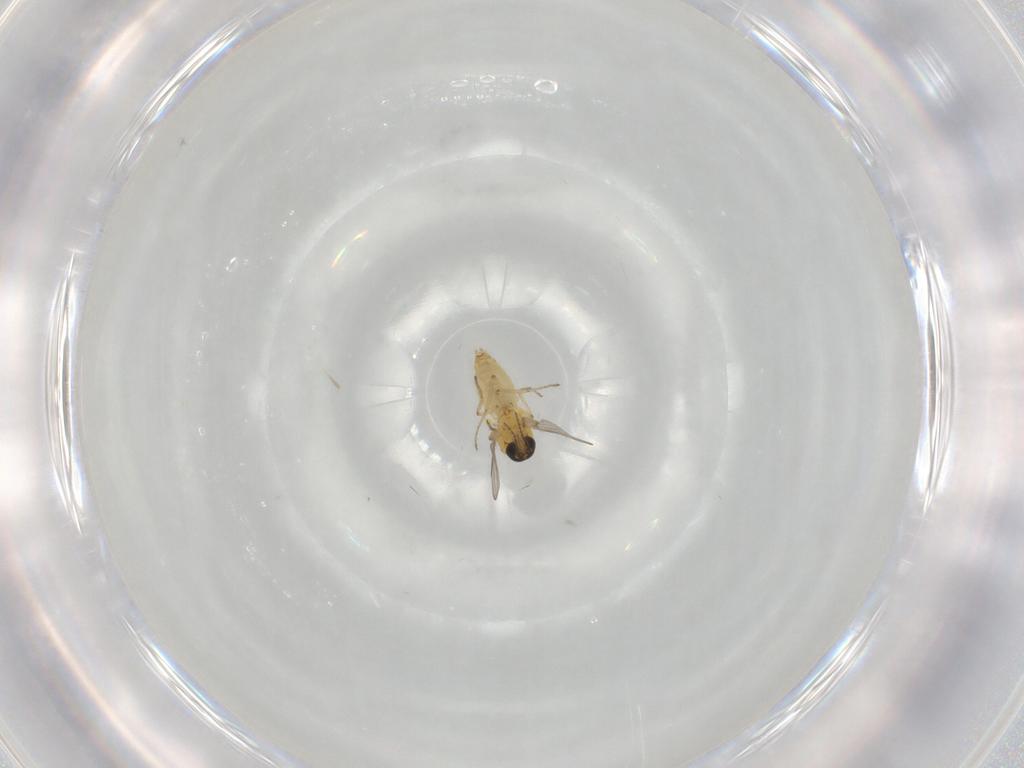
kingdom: Animalia
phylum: Arthropoda
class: Insecta
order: Diptera
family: Ceratopogonidae
